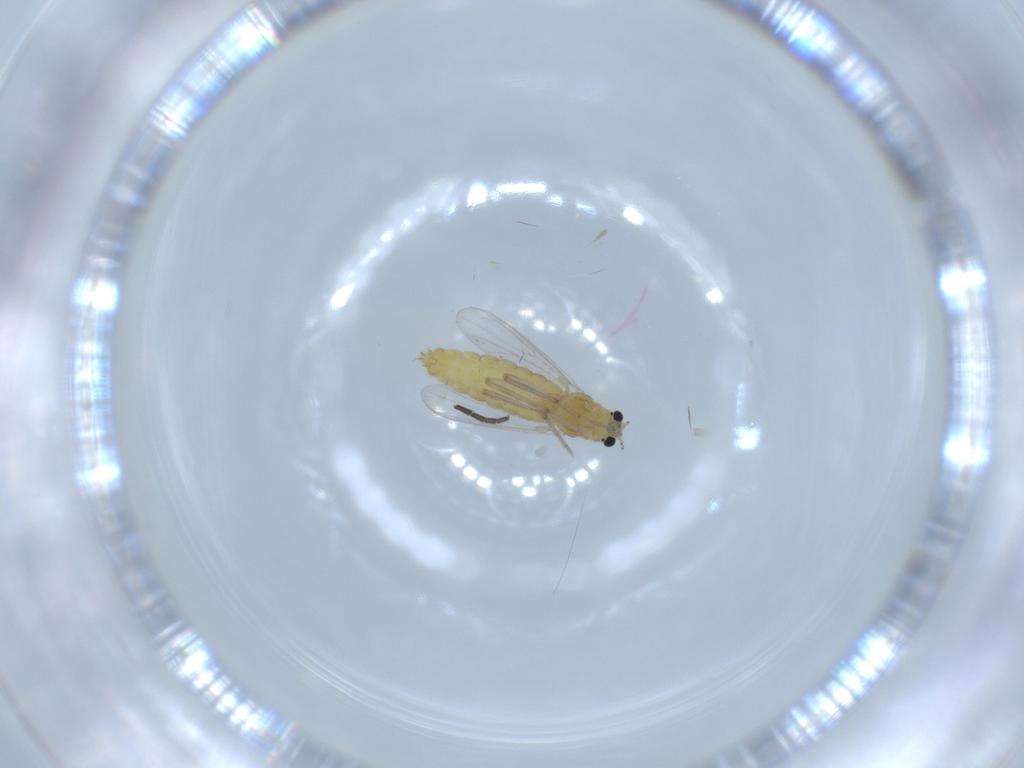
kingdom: Animalia
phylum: Arthropoda
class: Insecta
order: Diptera
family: Chironomidae
